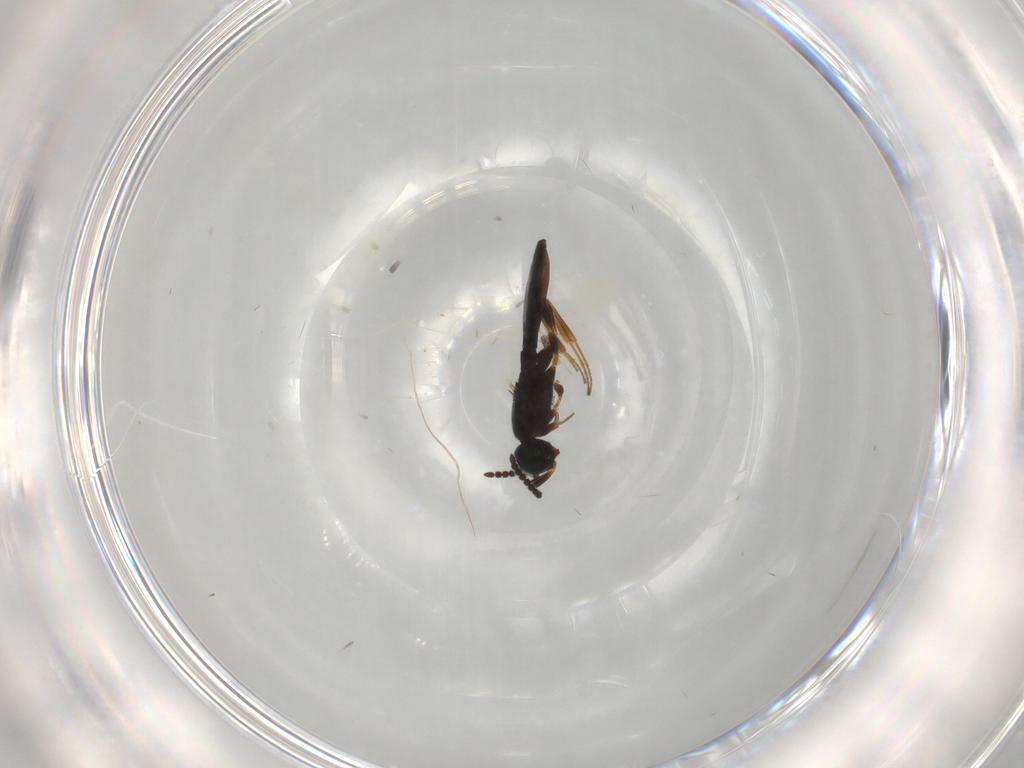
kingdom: Animalia
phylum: Arthropoda
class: Insecta
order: Hymenoptera
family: Scelionidae
